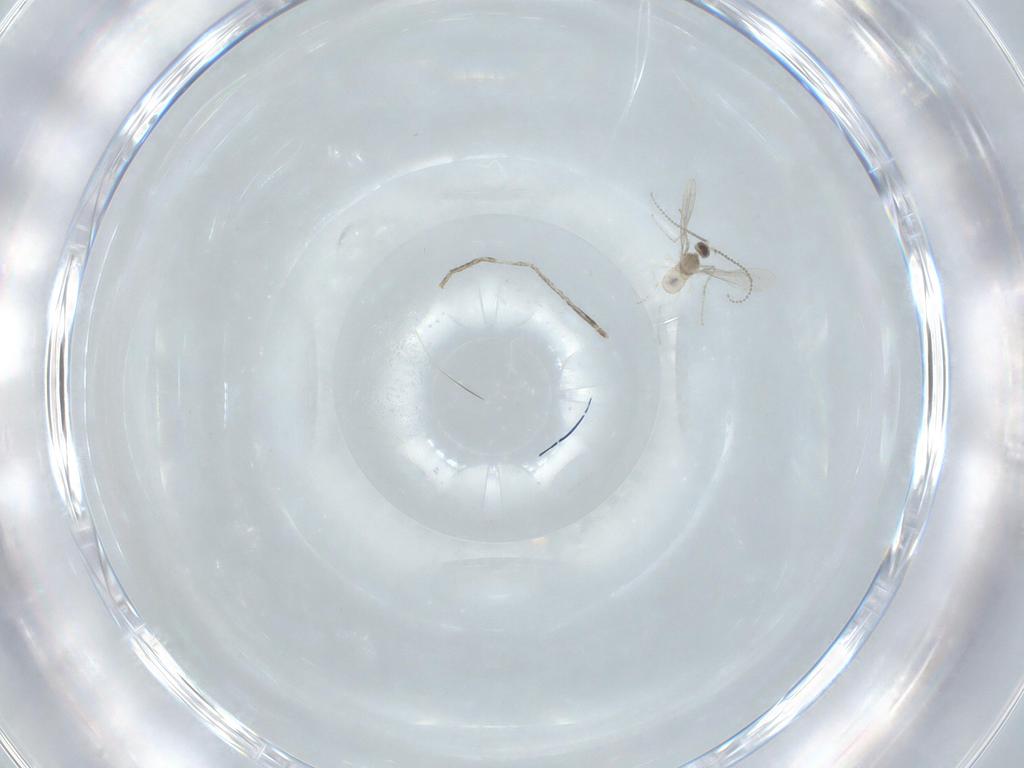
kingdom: Animalia
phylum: Arthropoda
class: Insecta
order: Diptera
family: Cecidomyiidae
